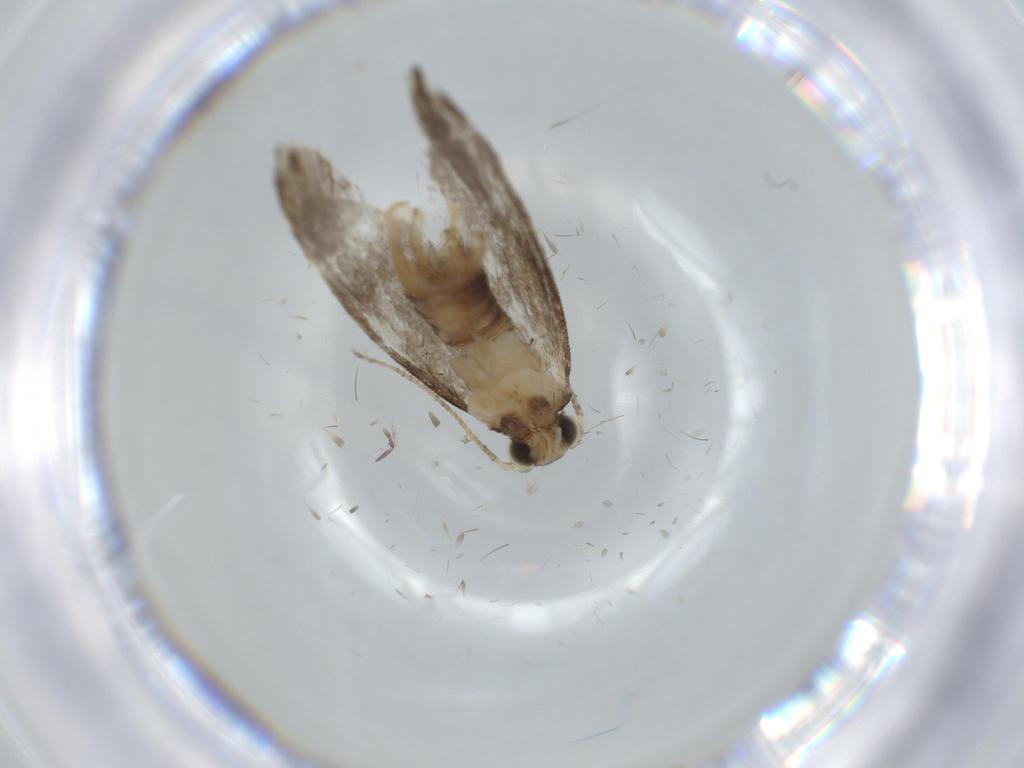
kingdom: Animalia
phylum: Arthropoda
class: Insecta
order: Lepidoptera
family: Tineidae
